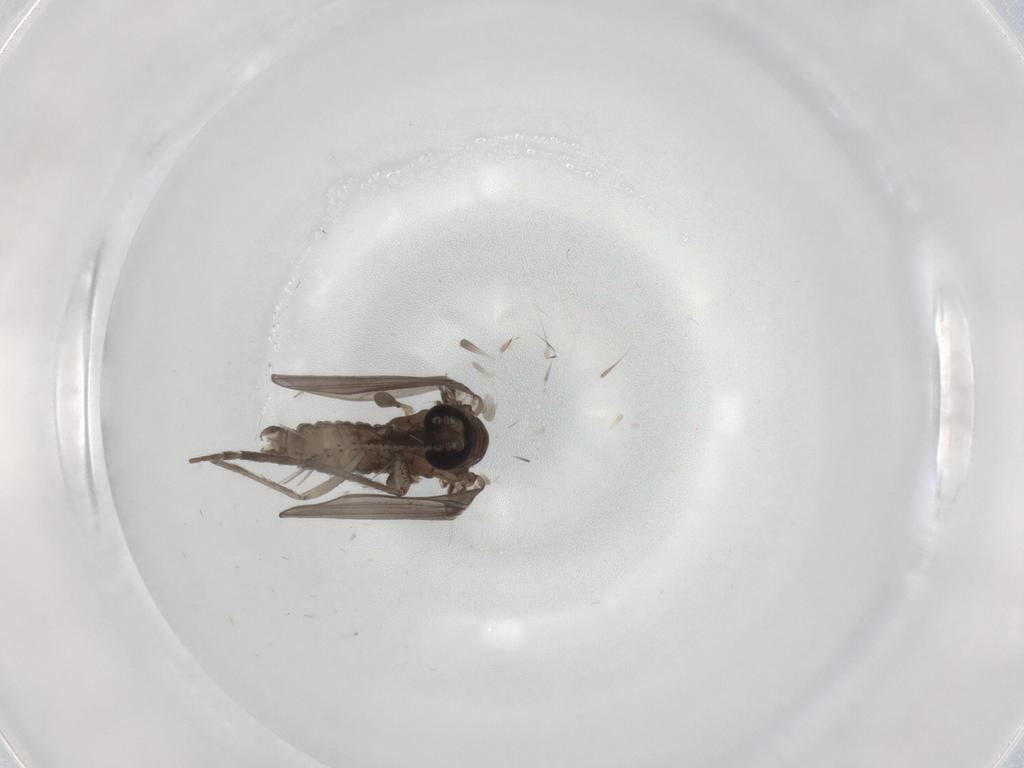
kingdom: Animalia
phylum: Arthropoda
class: Insecta
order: Diptera
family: Ceratopogonidae
